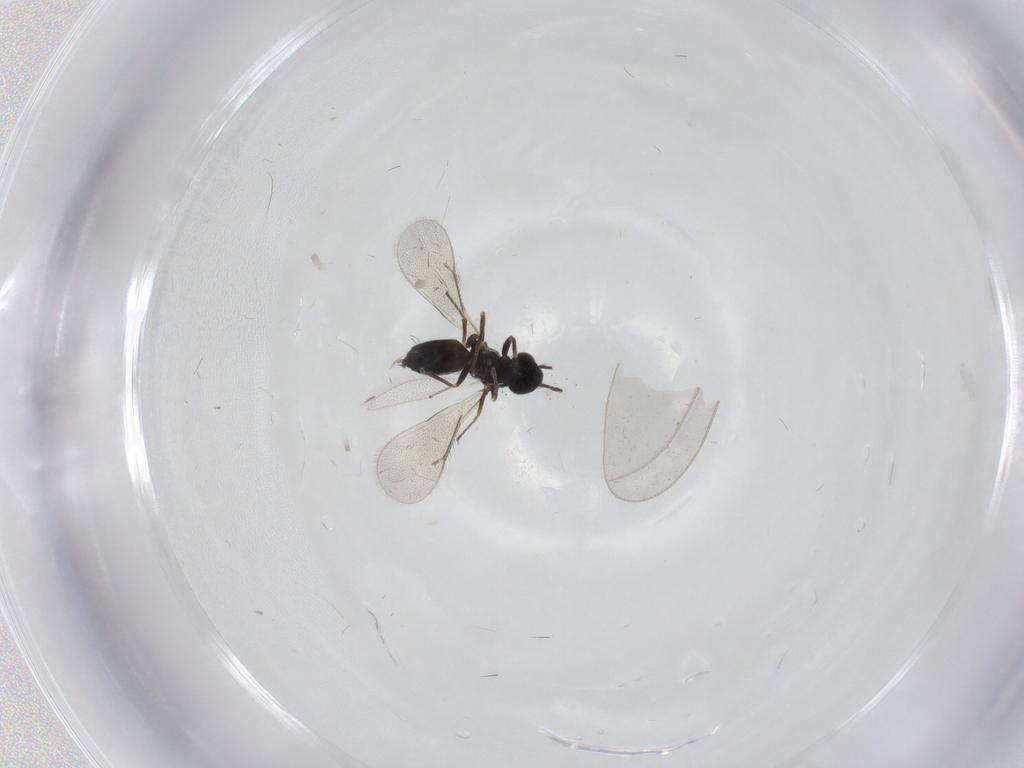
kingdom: Animalia
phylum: Arthropoda
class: Insecta
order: Hymenoptera
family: Eulophidae
